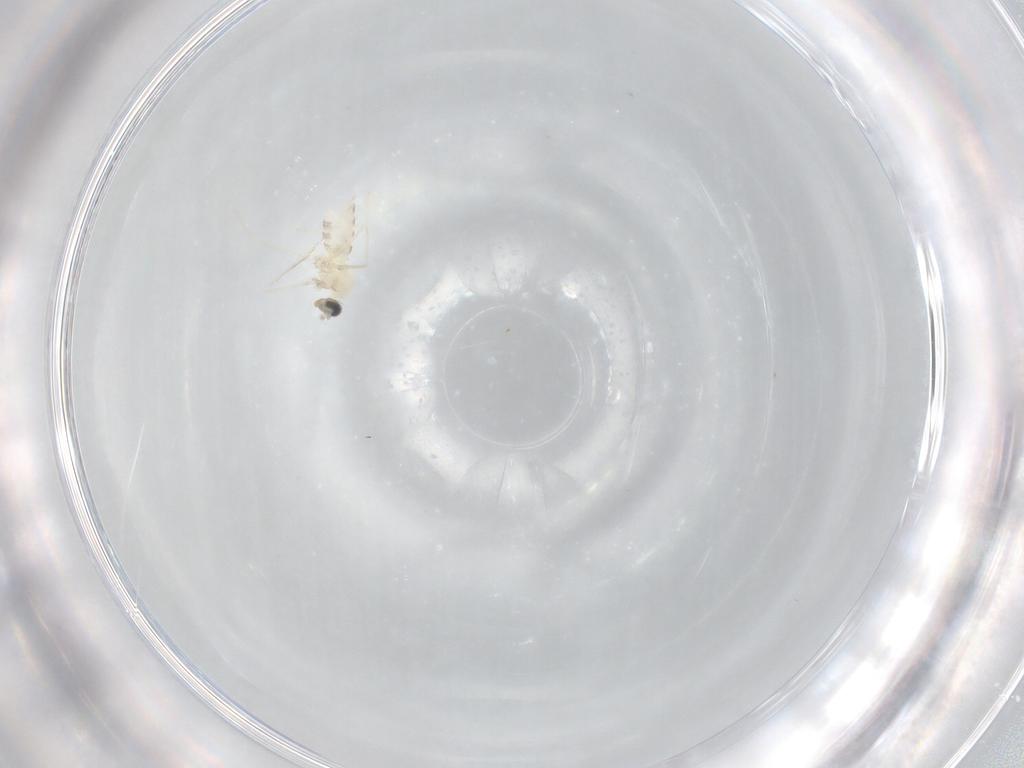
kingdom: Animalia
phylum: Arthropoda
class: Insecta
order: Diptera
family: Cecidomyiidae
